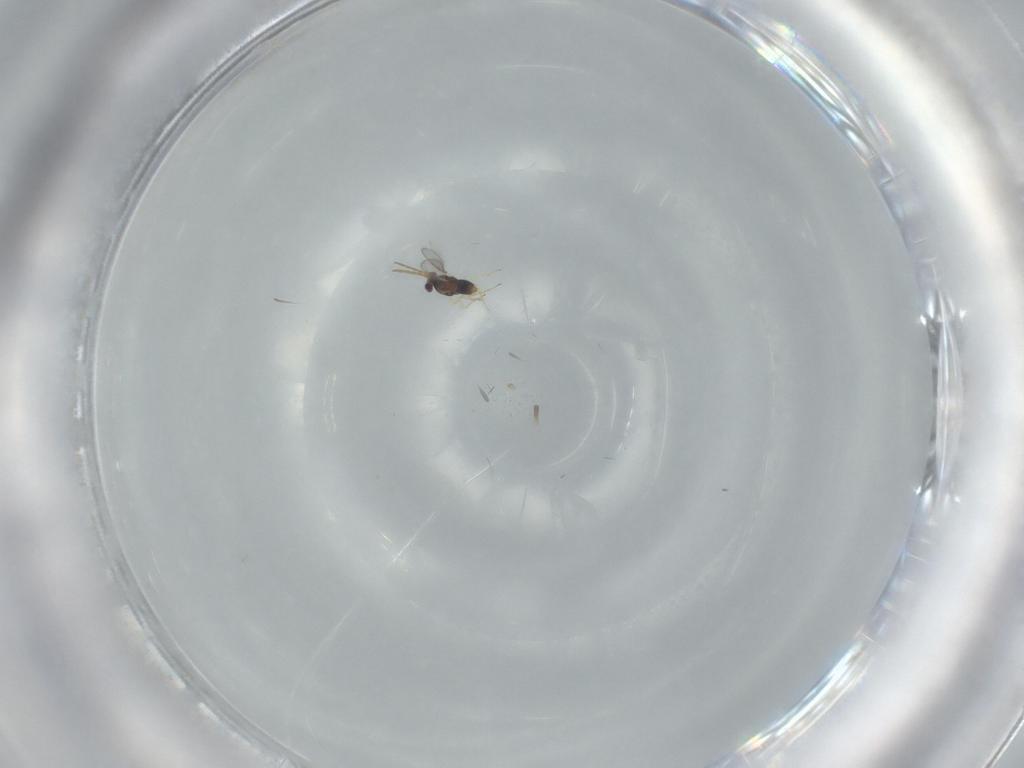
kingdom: Animalia
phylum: Arthropoda
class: Insecta
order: Hymenoptera
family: Aphelinidae
